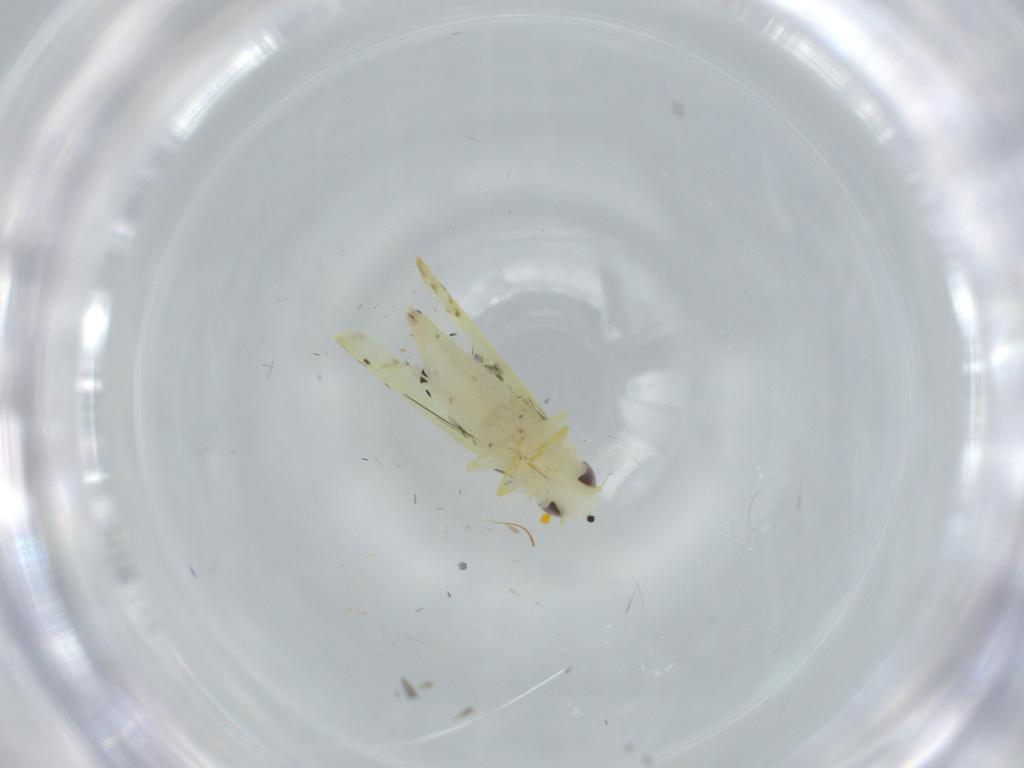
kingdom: Animalia
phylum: Arthropoda
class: Insecta
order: Hemiptera
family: Cicadellidae
